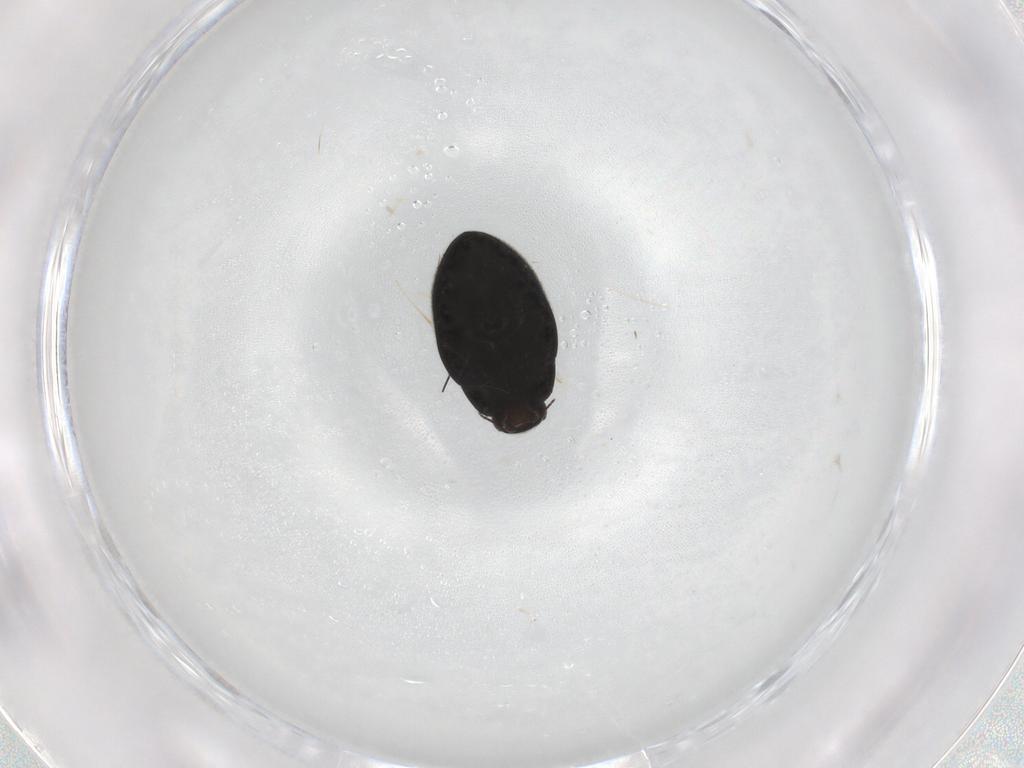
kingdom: Animalia
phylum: Arthropoda
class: Insecta
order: Coleoptera
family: Limnichidae
